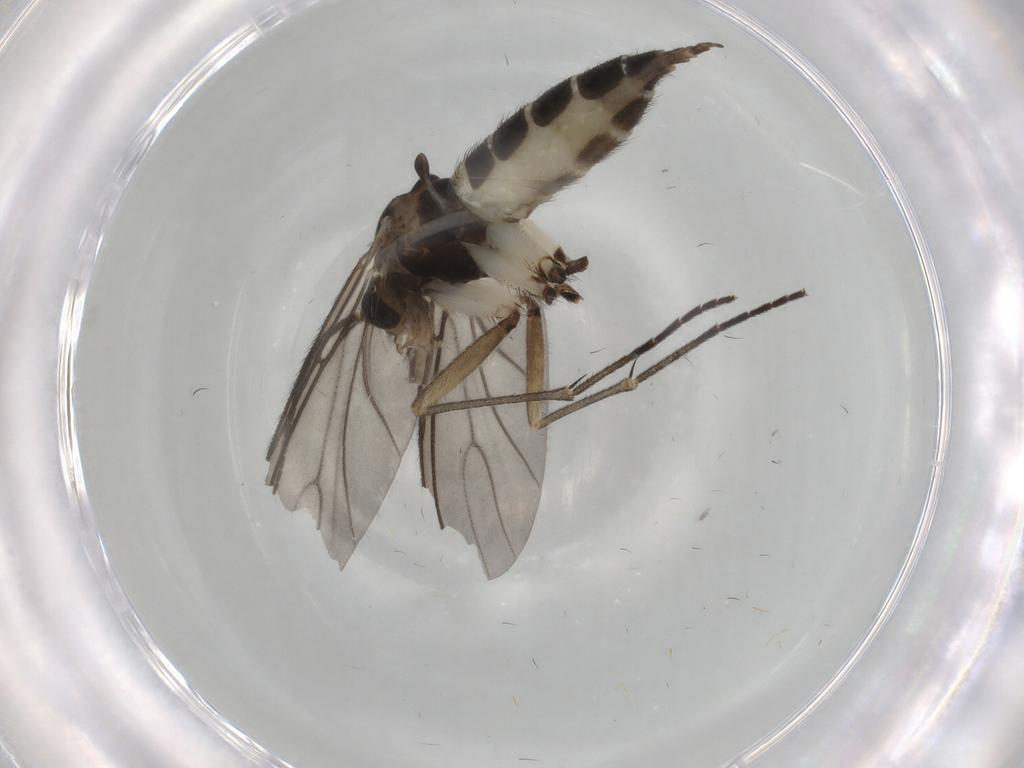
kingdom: Animalia
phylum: Arthropoda
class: Insecta
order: Diptera
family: Sciaridae
